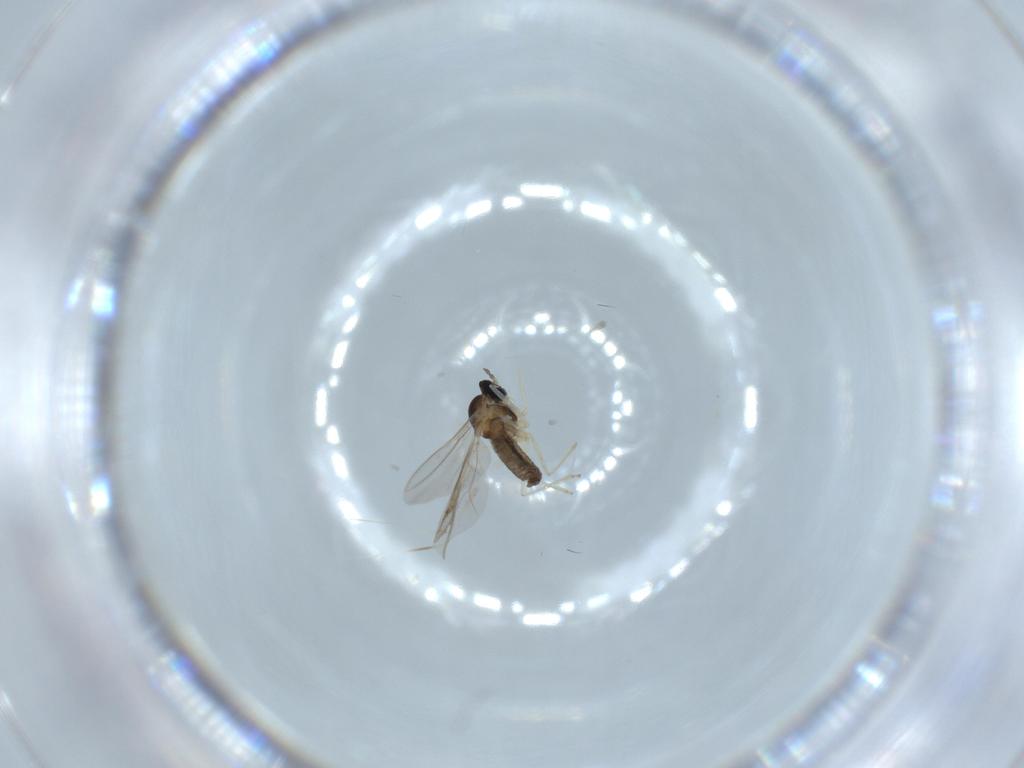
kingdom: Animalia
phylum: Arthropoda
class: Insecta
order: Diptera
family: Cecidomyiidae
